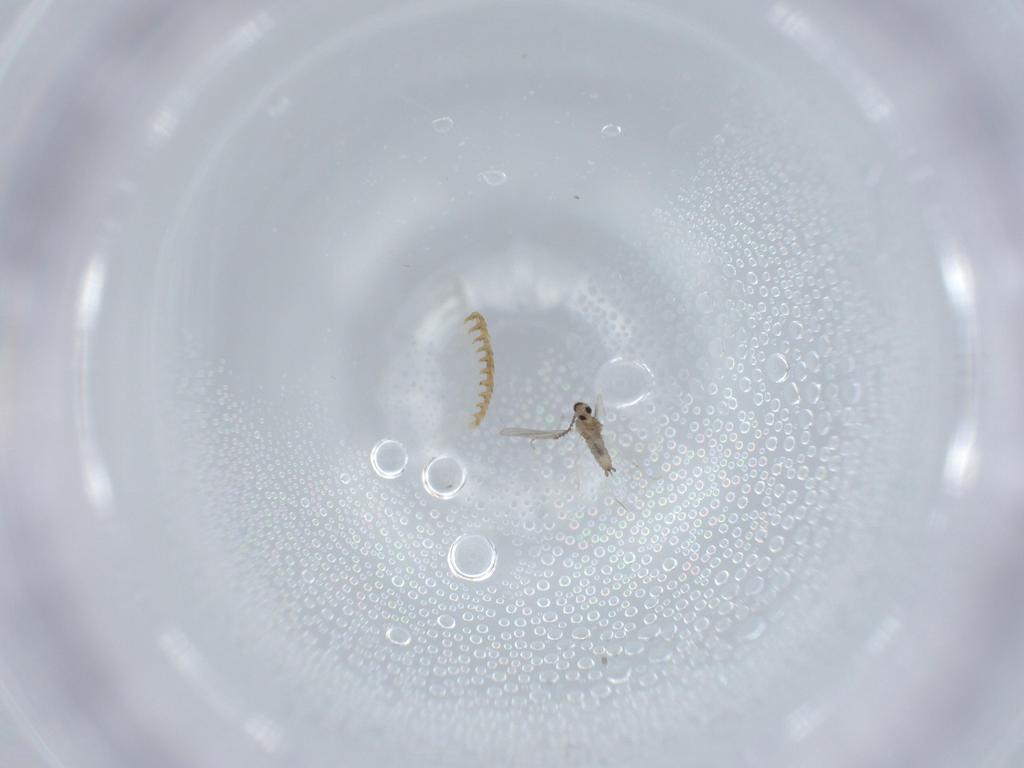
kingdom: Animalia
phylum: Arthropoda
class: Insecta
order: Diptera
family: Cecidomyiidae
